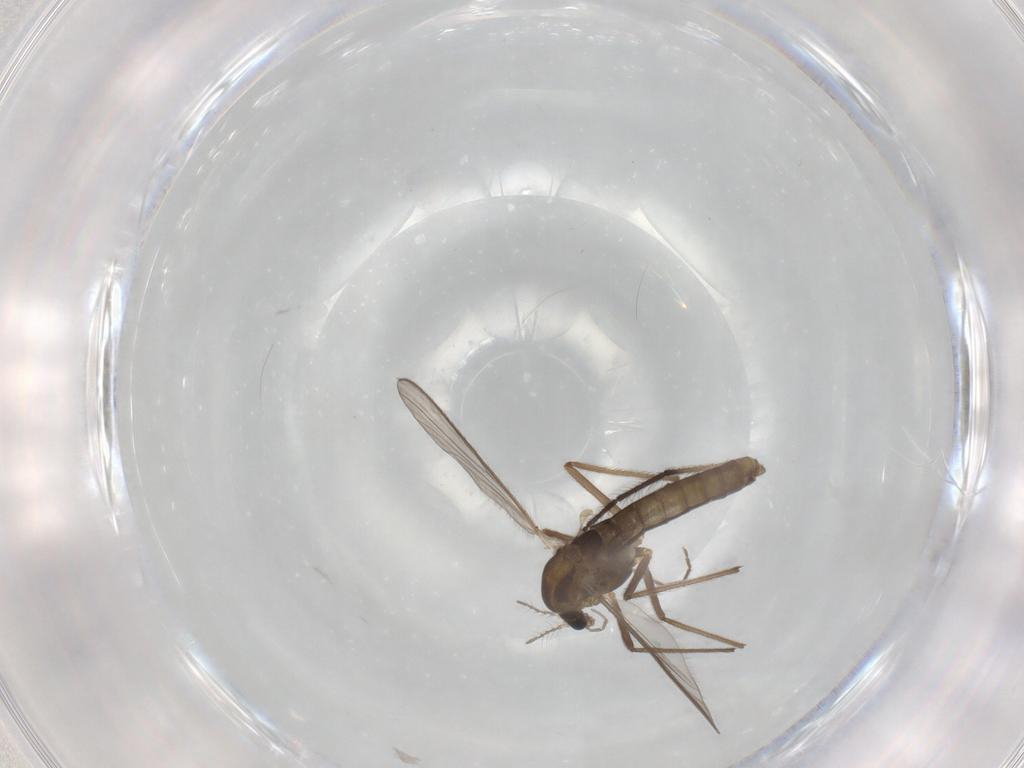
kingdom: Animalia
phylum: Arthropoda
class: Insecta
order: Diptera
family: Chironomidae
